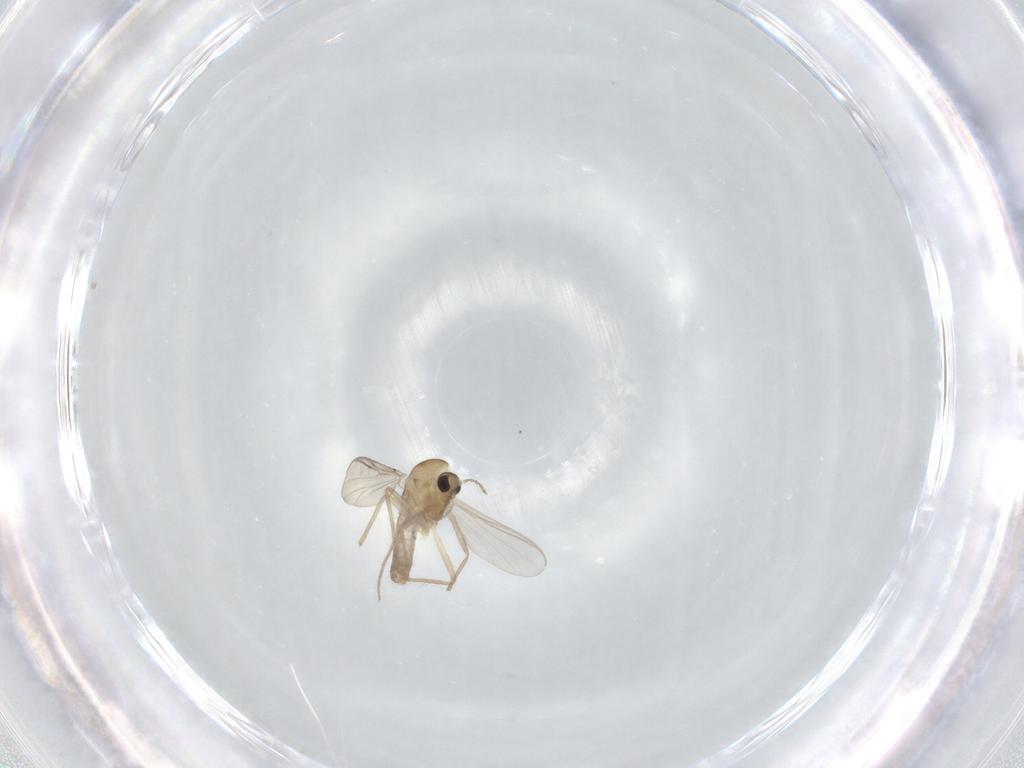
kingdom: Animalia
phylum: Arthropoda
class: Insecta
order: Diptera
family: Chironomidae
